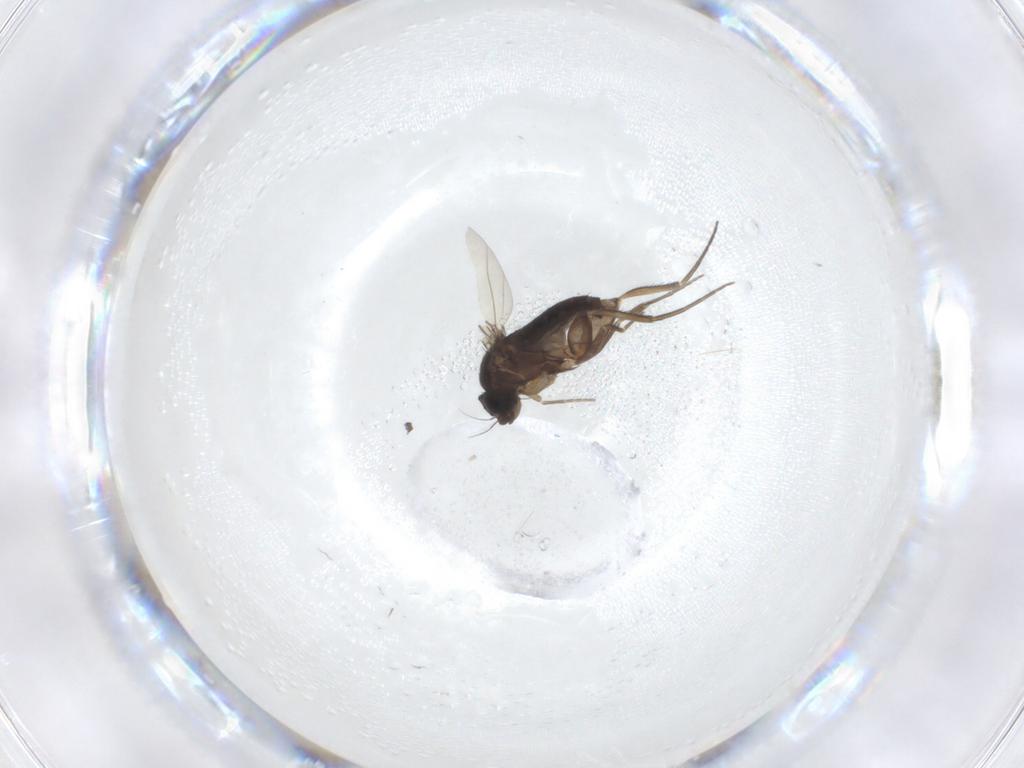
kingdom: Animalia
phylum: Arthropoda
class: Insecta
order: Diptera
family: Phoridae
